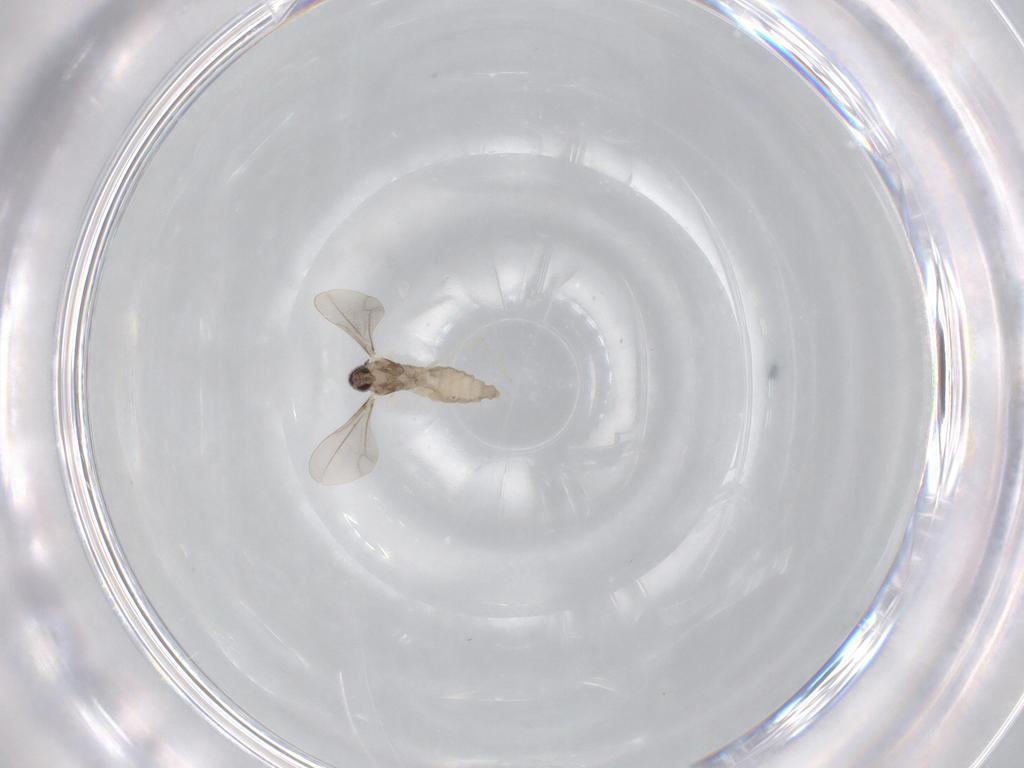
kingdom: Animalia
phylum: Arthropoda
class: Insecta
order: Diptera
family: Cecidomyiidae
